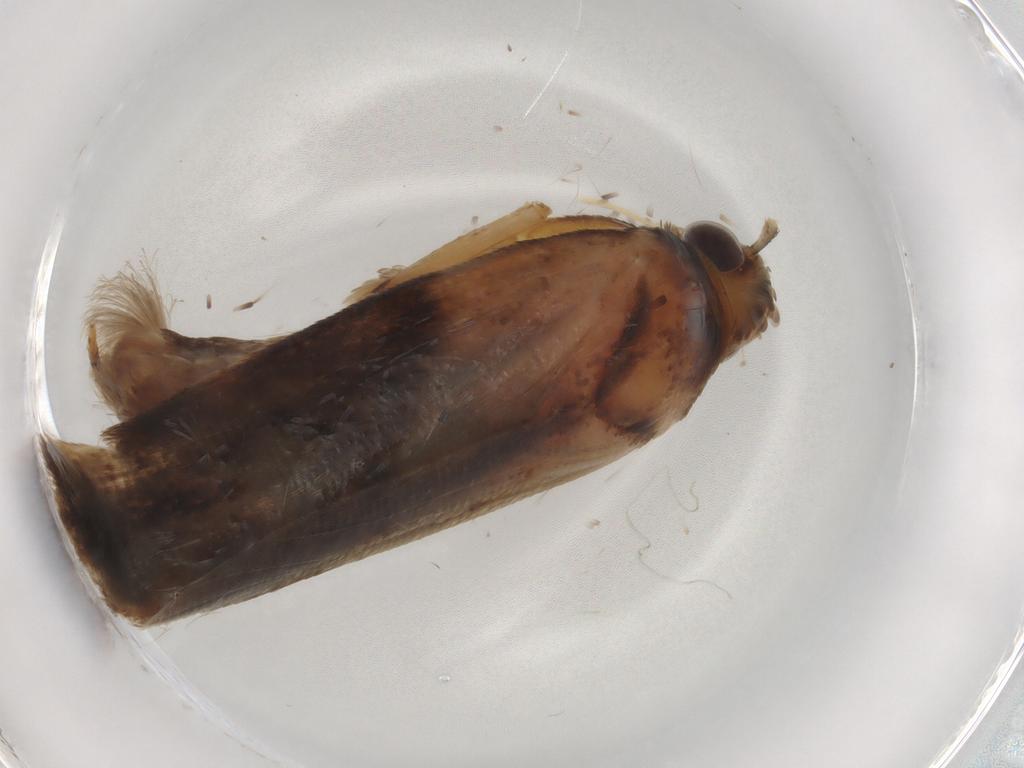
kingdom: Animalia
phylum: Arthropoda
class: Insecta
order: Lepidoptera
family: Gelechiidae
